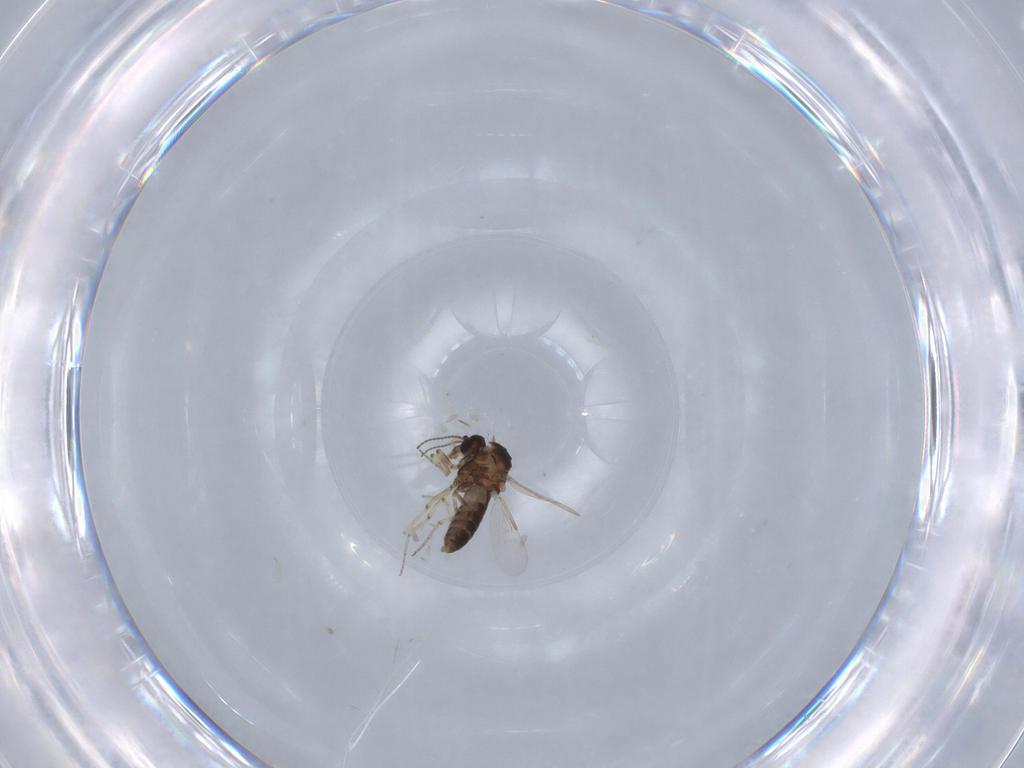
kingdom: Animalia
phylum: Arthropoda
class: Insecta
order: Diptera
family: Ceratopogonidae
